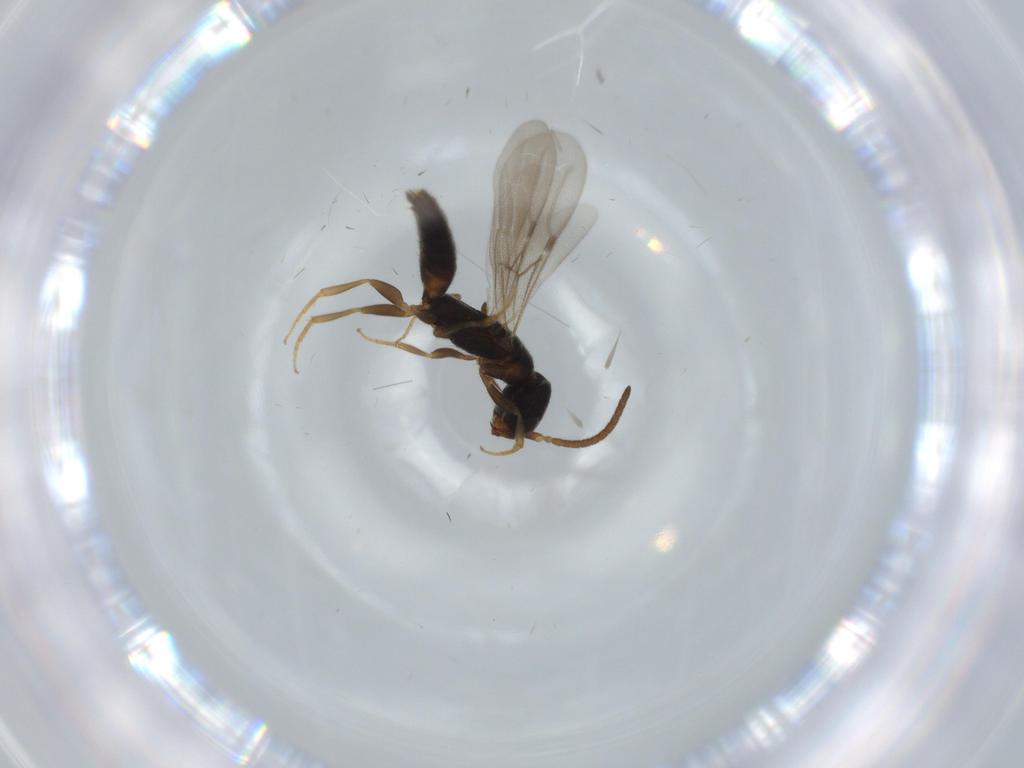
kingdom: Animalia
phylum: Arthropoda
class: Insecta
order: Hymenoptera
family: Bethylidae
